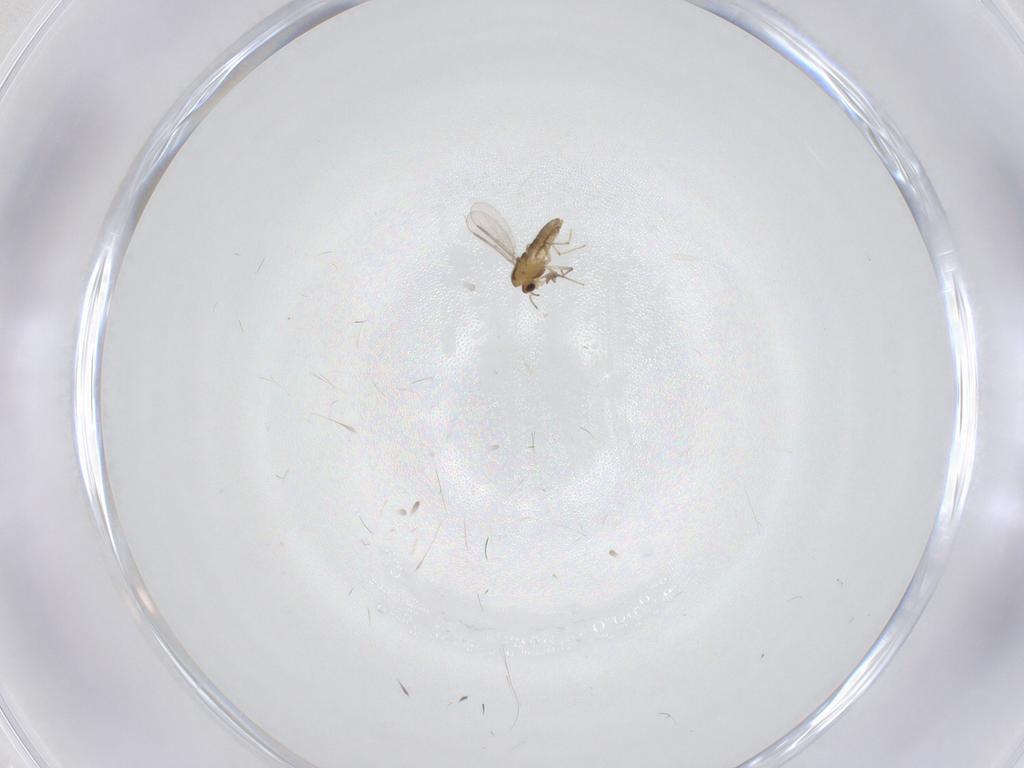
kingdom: Animalia
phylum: Arthropoda
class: Insecta
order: Diptera
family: Chironomidae
